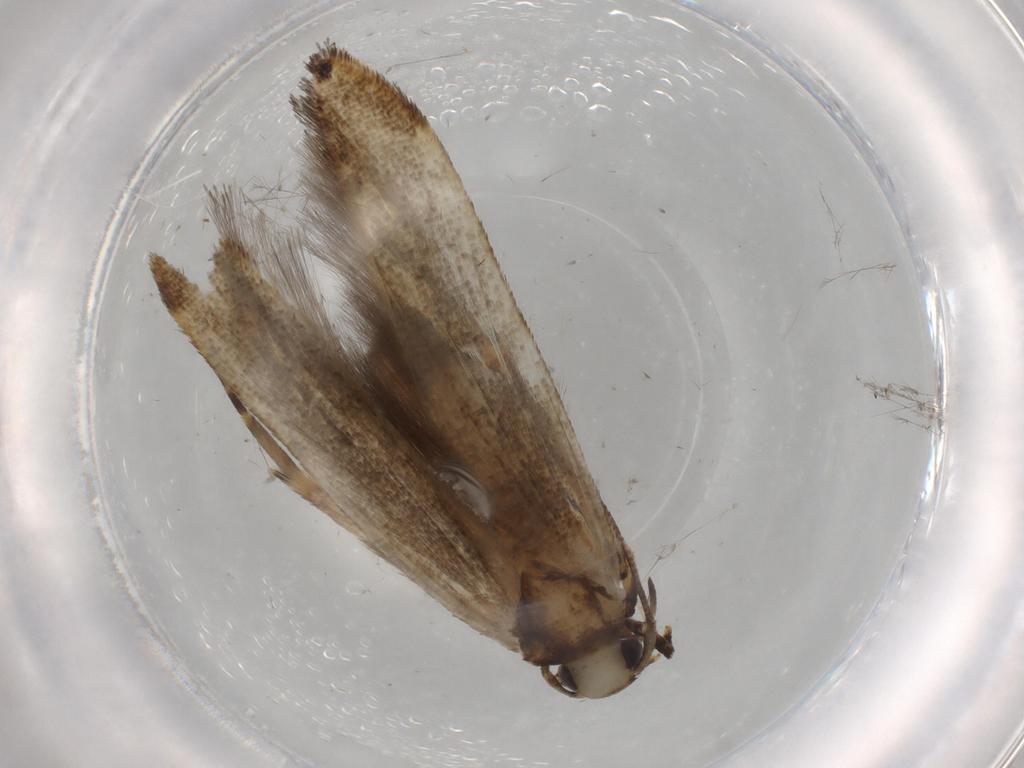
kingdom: Animalia
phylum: Arthropoda
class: Insecta
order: Lepidoptera
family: Cosmopterigidae
